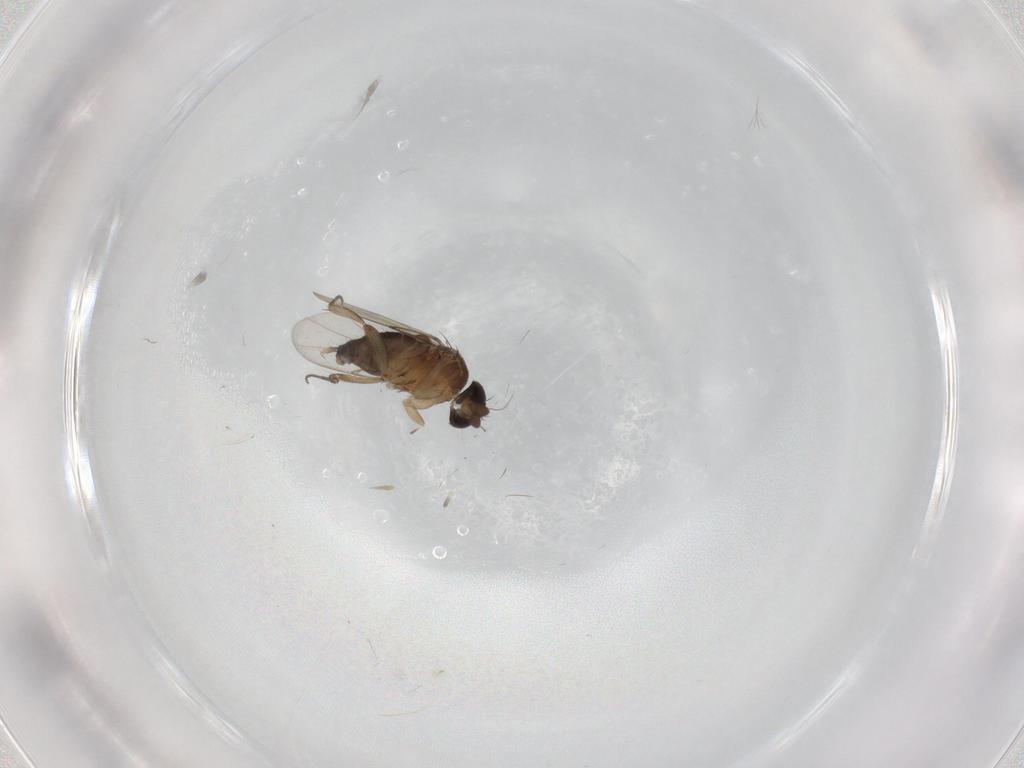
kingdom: Animalia
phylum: Arthropoda
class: Insecta
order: Diptera
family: Phoridae
